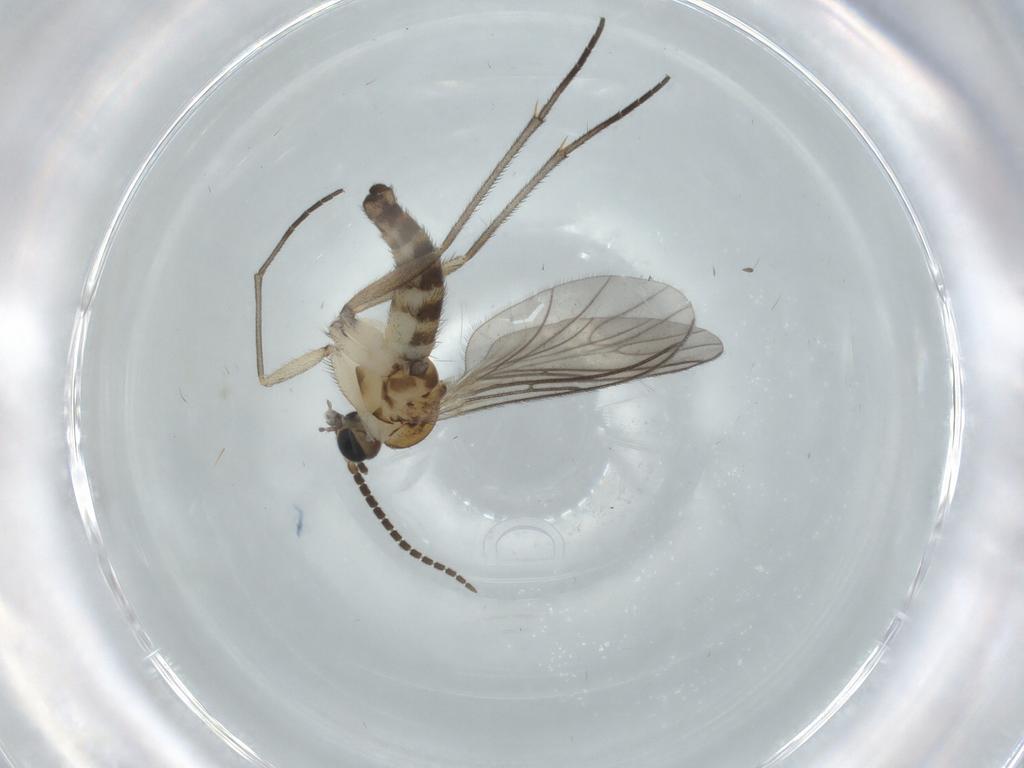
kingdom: Animalia
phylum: Arthropoda
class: Insecta
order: Diptera
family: Sciaridae
